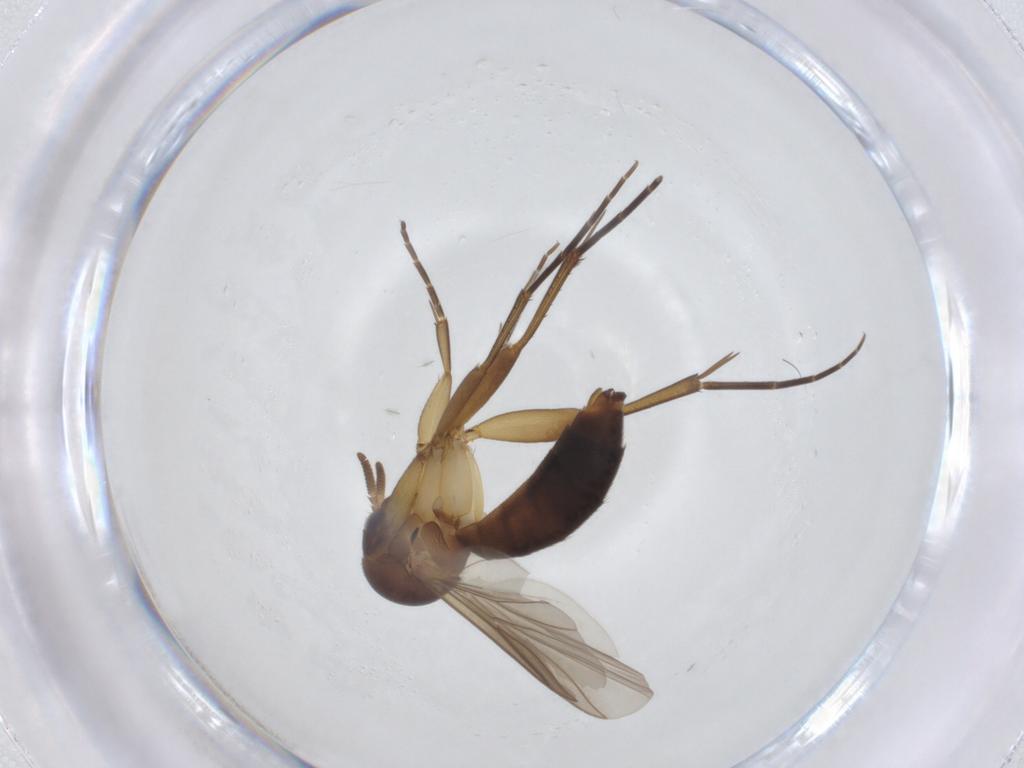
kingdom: Animalia
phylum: Arthropoda
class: Insecta
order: Diptera
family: Mycetophilidae
